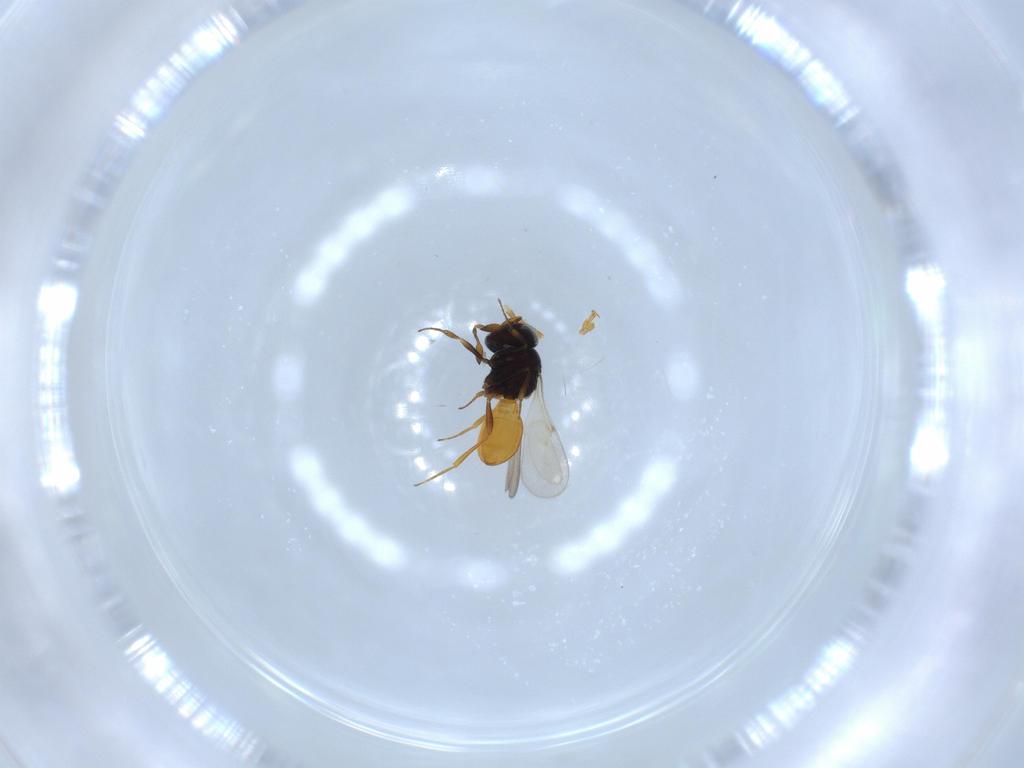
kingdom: Animalia
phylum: Arthropoda
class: Insecta
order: Hymenoptera
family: Scelionidae
